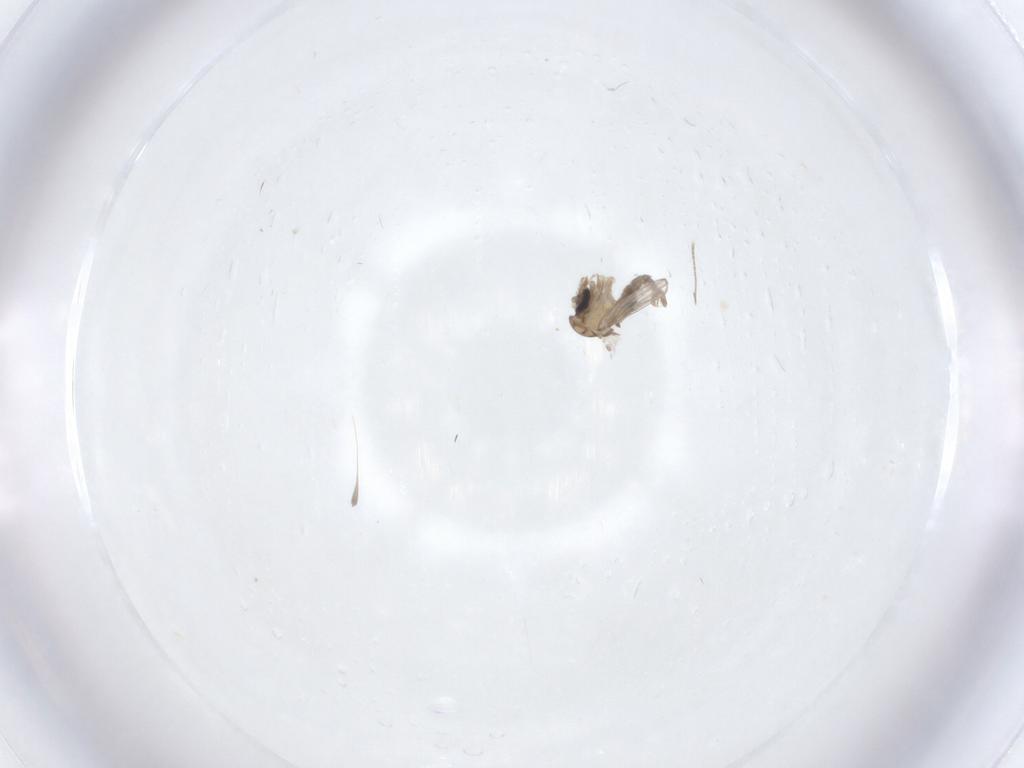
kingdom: Animalia
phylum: Arthropoda
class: Insecta
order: Diptera
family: Psychodidae
